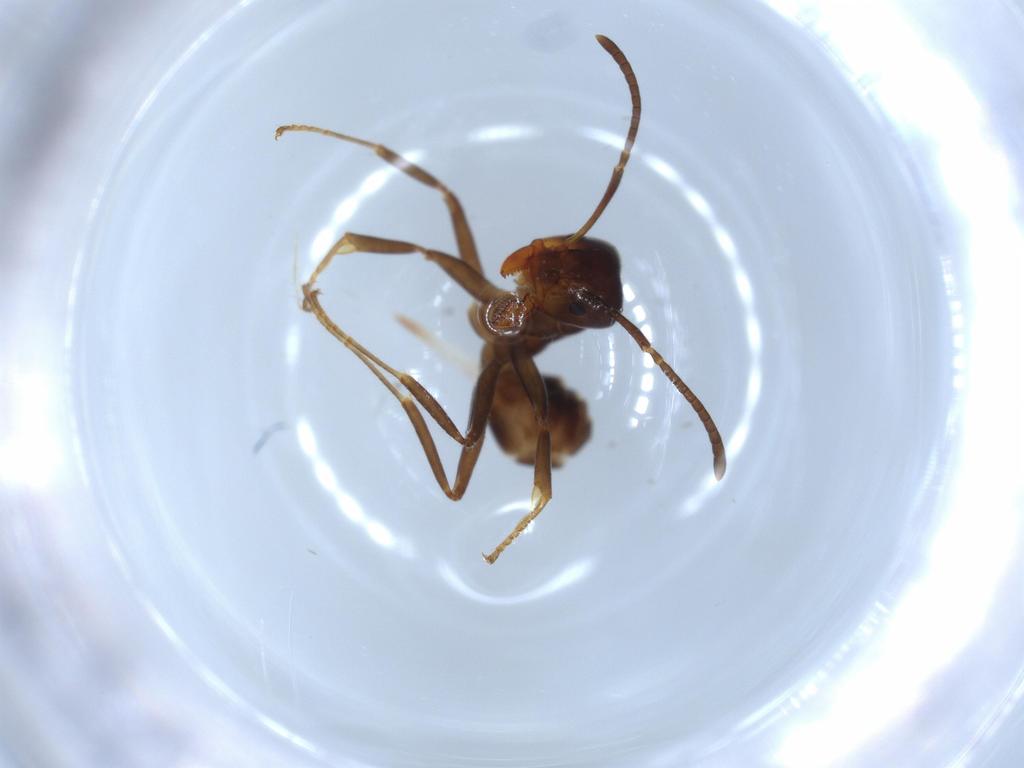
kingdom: Animalia
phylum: Arthropoda
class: Insecta
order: Hymenoptera
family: Formicidae
